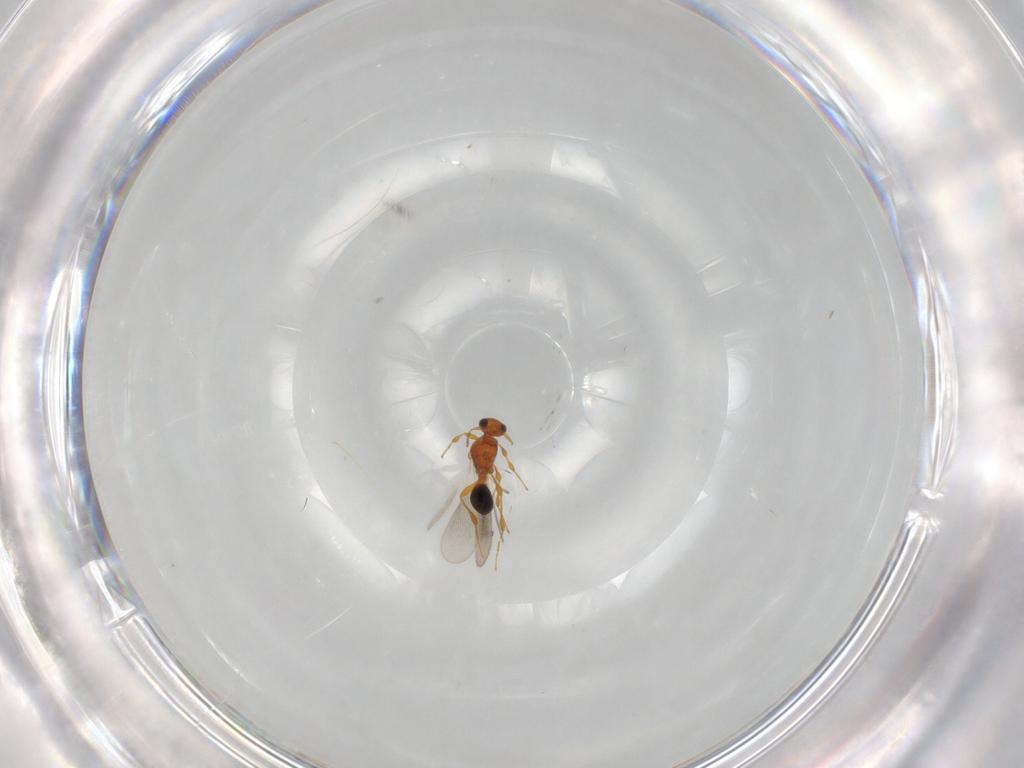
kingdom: Animalia
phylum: Arthropoda
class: Insecta
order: Hymenoptera
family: Platygastridae
